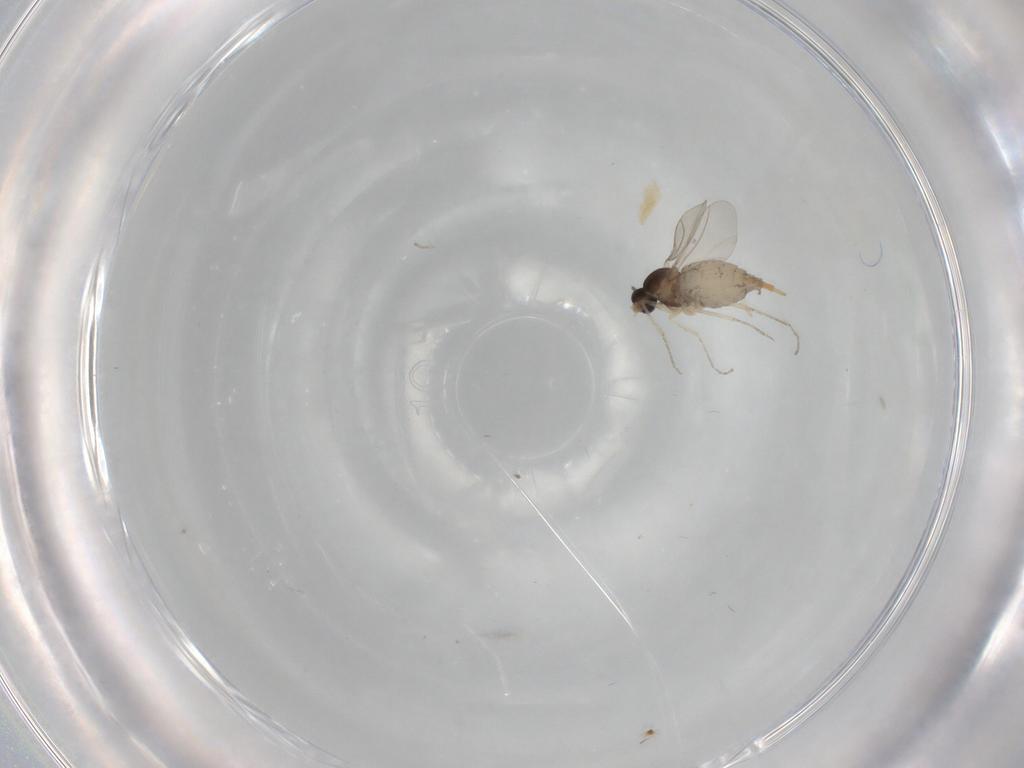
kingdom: Animalia
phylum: Arthropoda
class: Insecta
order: Diptera
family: Cecidomyiidae
